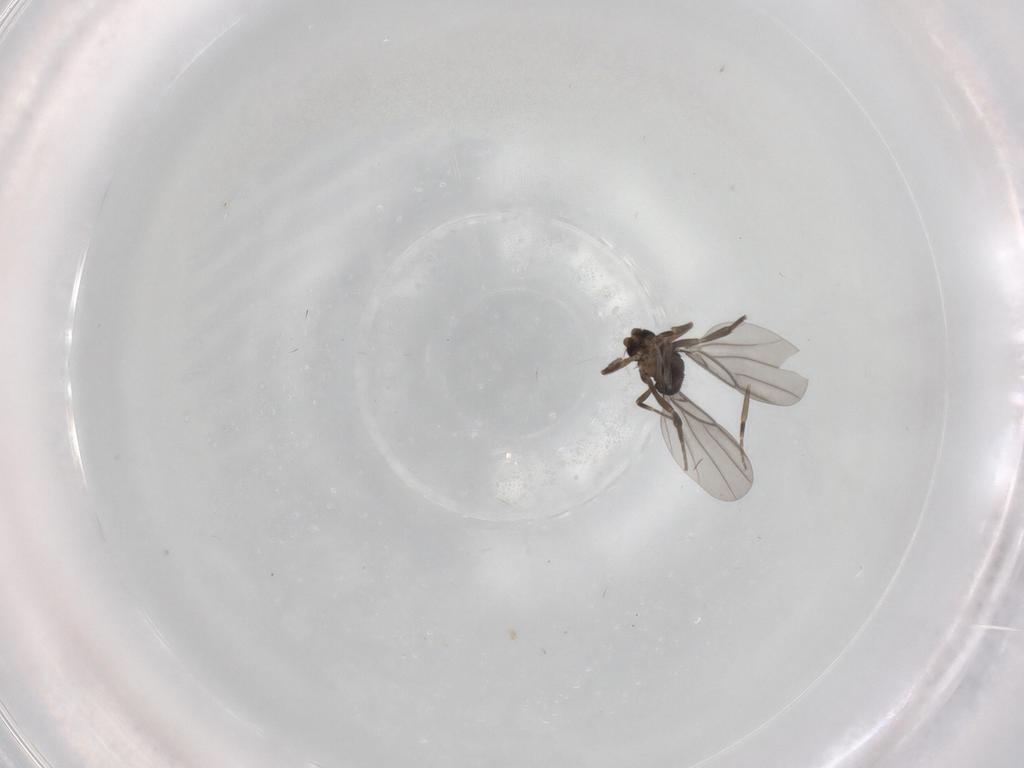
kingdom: Animalia
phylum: Arthropoda
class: Insecta
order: Diptera
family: Phoridae
